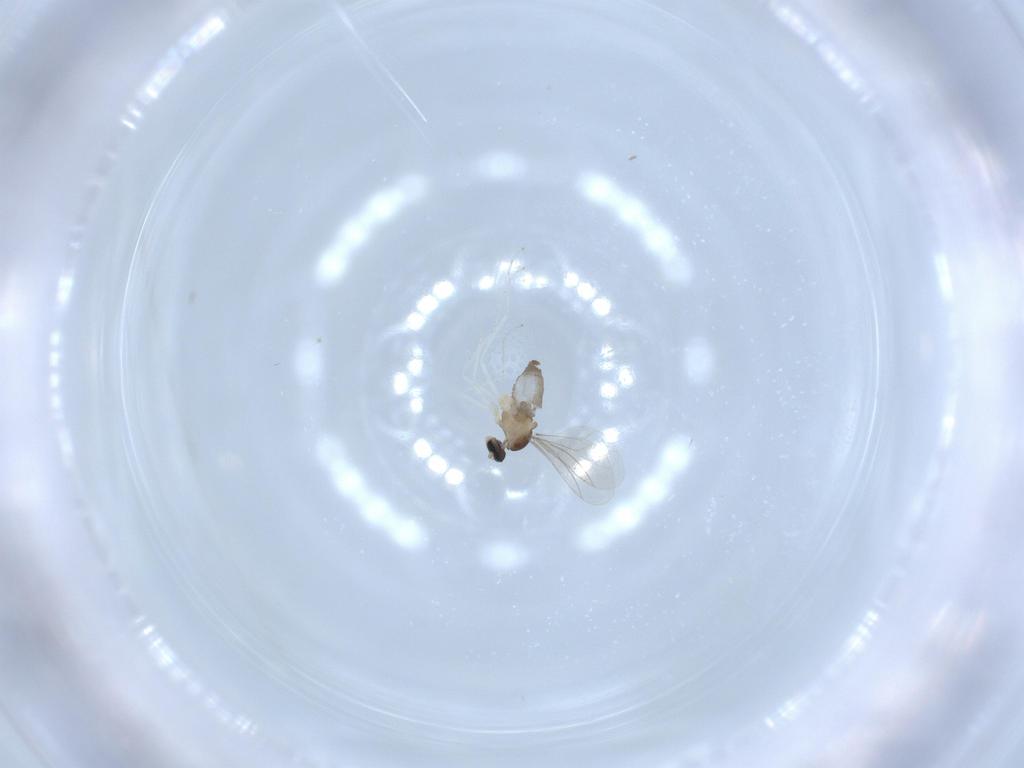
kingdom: Animalia
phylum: Arthropoda
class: Insecta
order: Diptera
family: Cecidomyiidae
